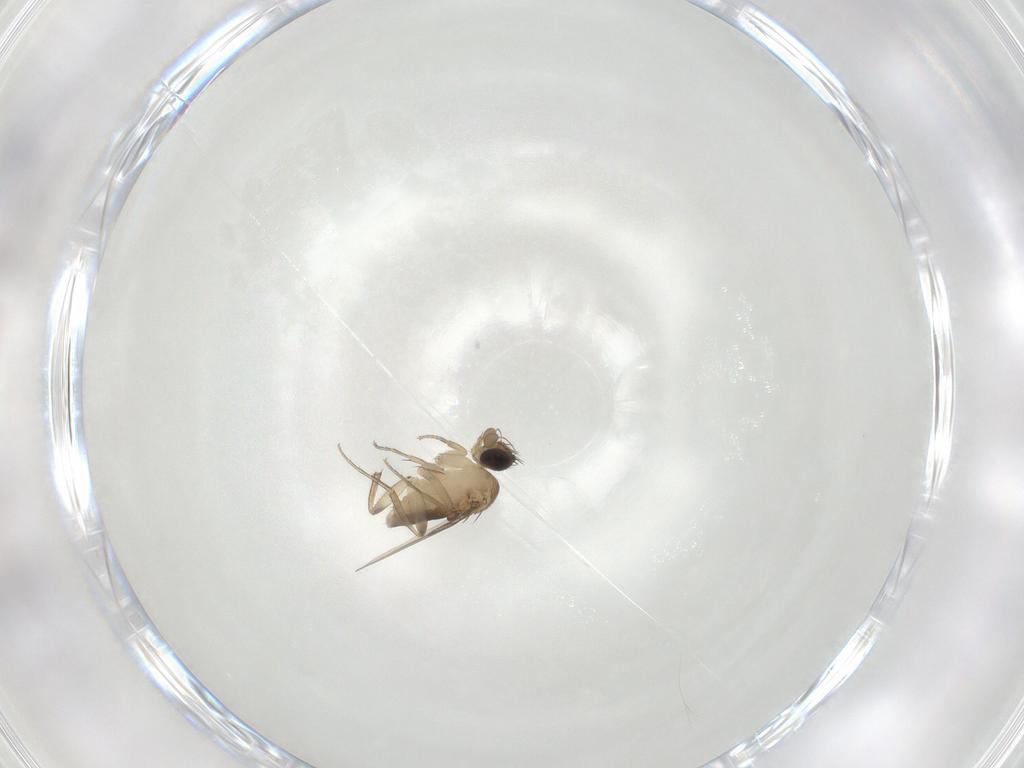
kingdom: Animalia
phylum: Arthropoda
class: Insecta
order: Diptera
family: Phoridae
